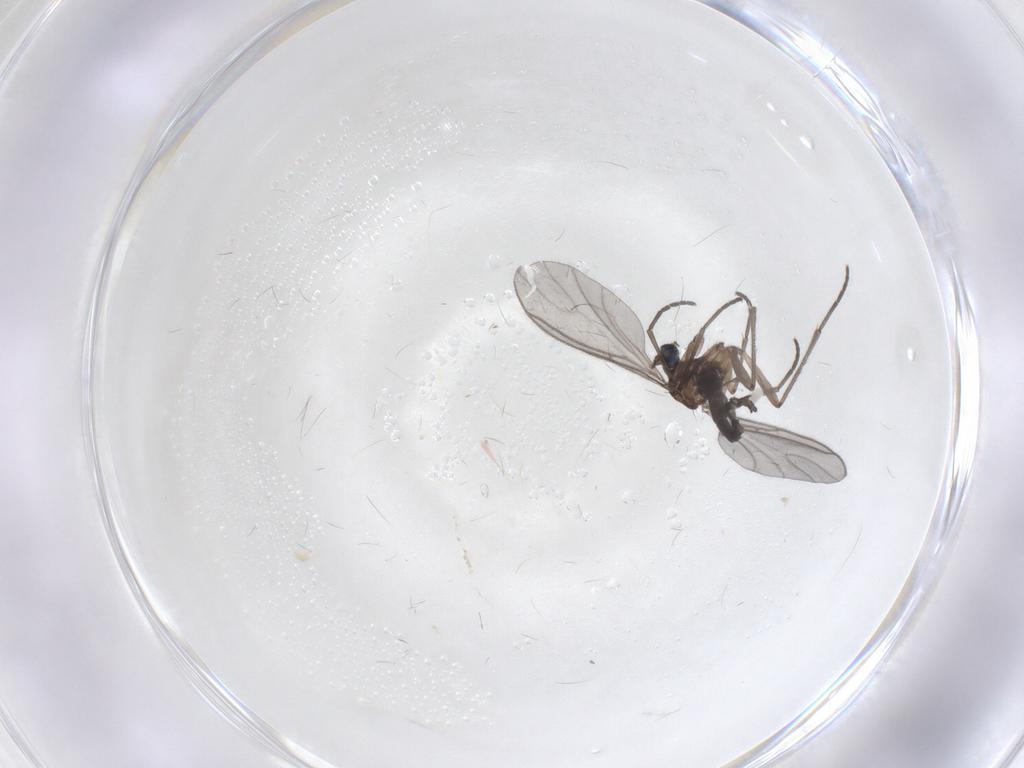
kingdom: Animalia
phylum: Arthropoda
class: Insecta
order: Diptera
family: Sciaridae
